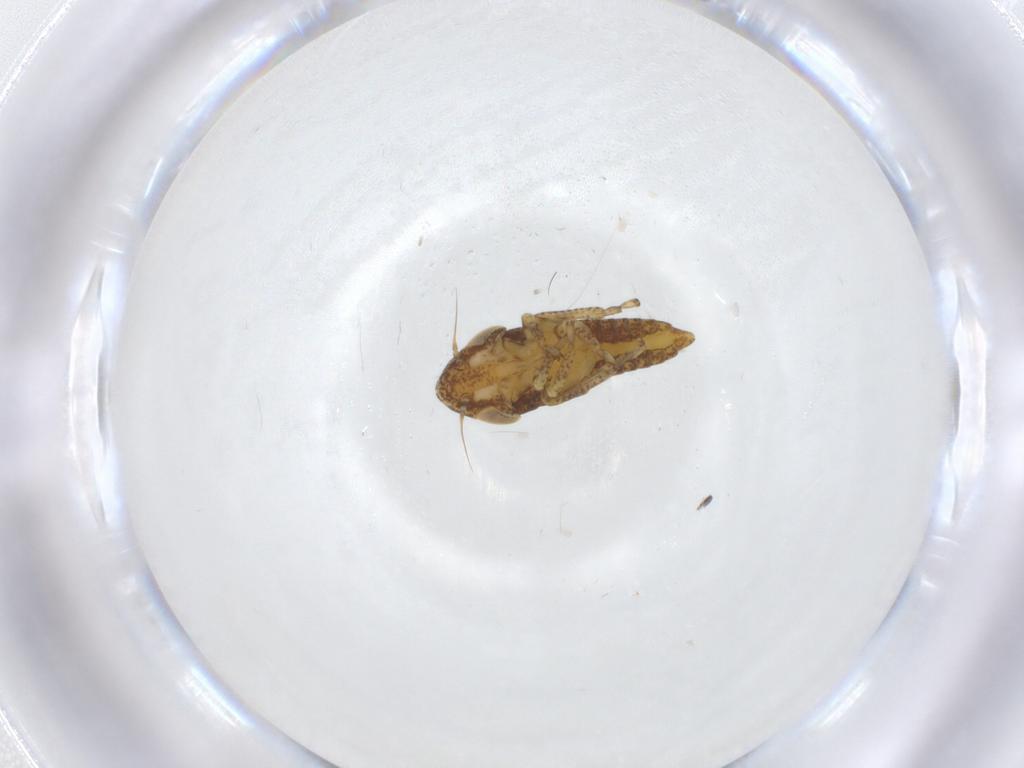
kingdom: Animalia
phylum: Arthropoda
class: Insecta
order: Hemiptera
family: Cicadellidae
